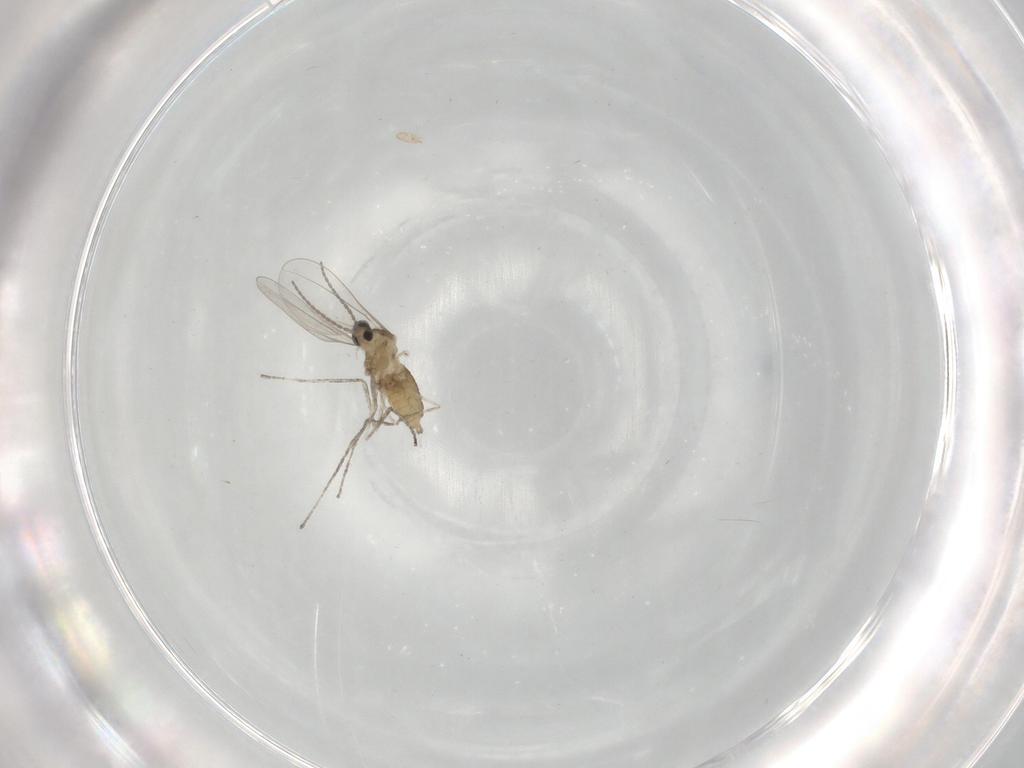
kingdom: Animalia
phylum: Arthropoda
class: Insecta
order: Diptera
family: Cecidomyiidae
